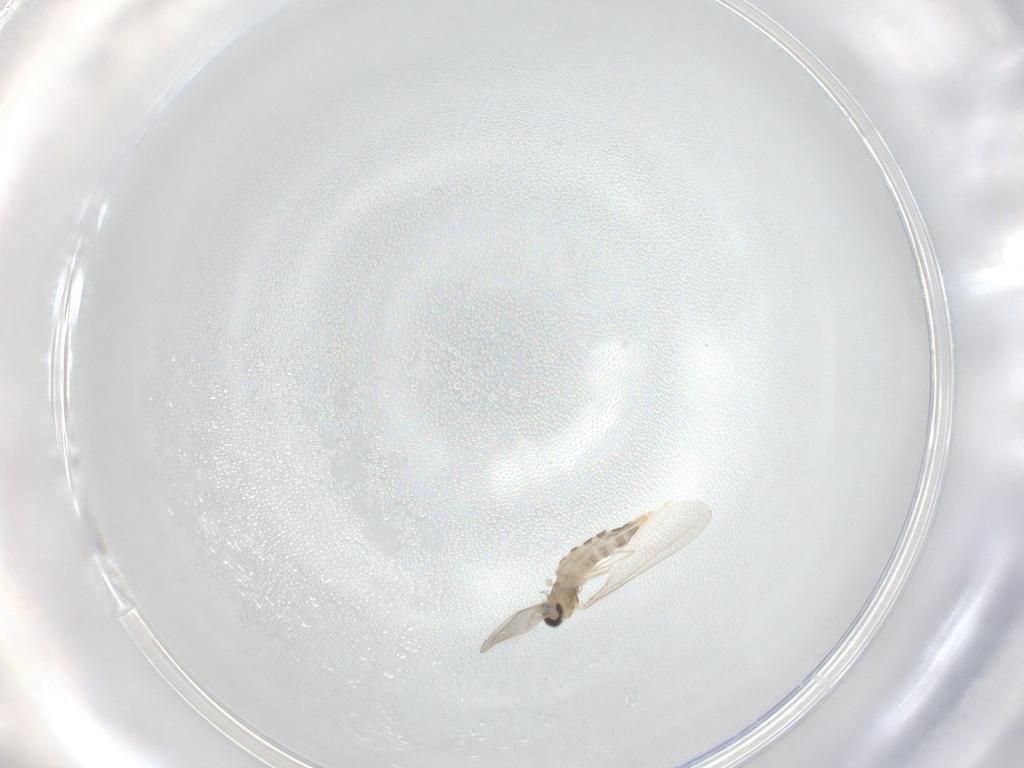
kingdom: Animalia
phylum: Arthropoda
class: Insecta
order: Diptera
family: Cecidomyiidae
